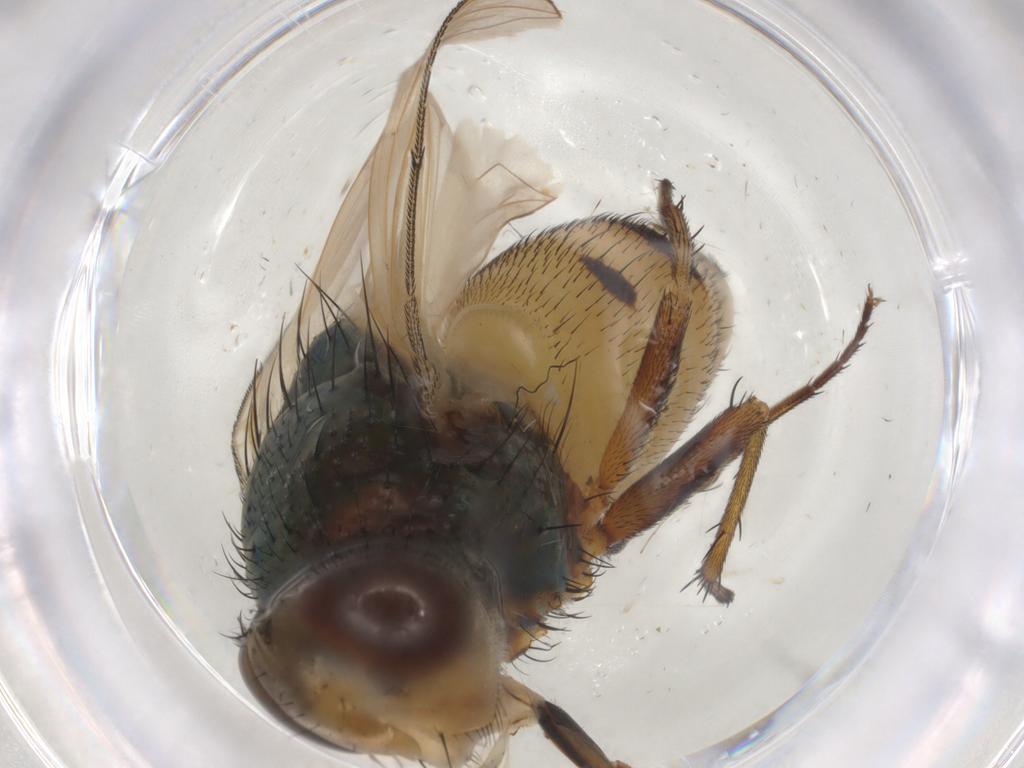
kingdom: Animalia
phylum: Arthropoda
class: Insecta
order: Diptera
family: Calliphoridae
